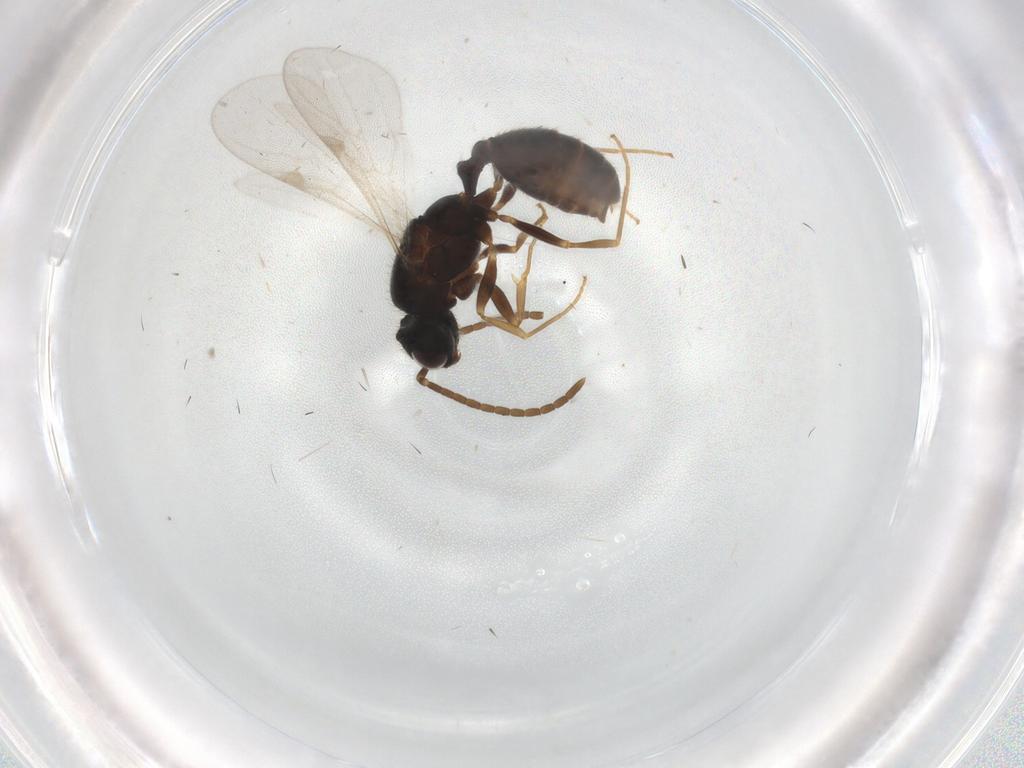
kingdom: Animalia
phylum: Arthropoda
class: Insecta
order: Hymenoptera
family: Formicidae
